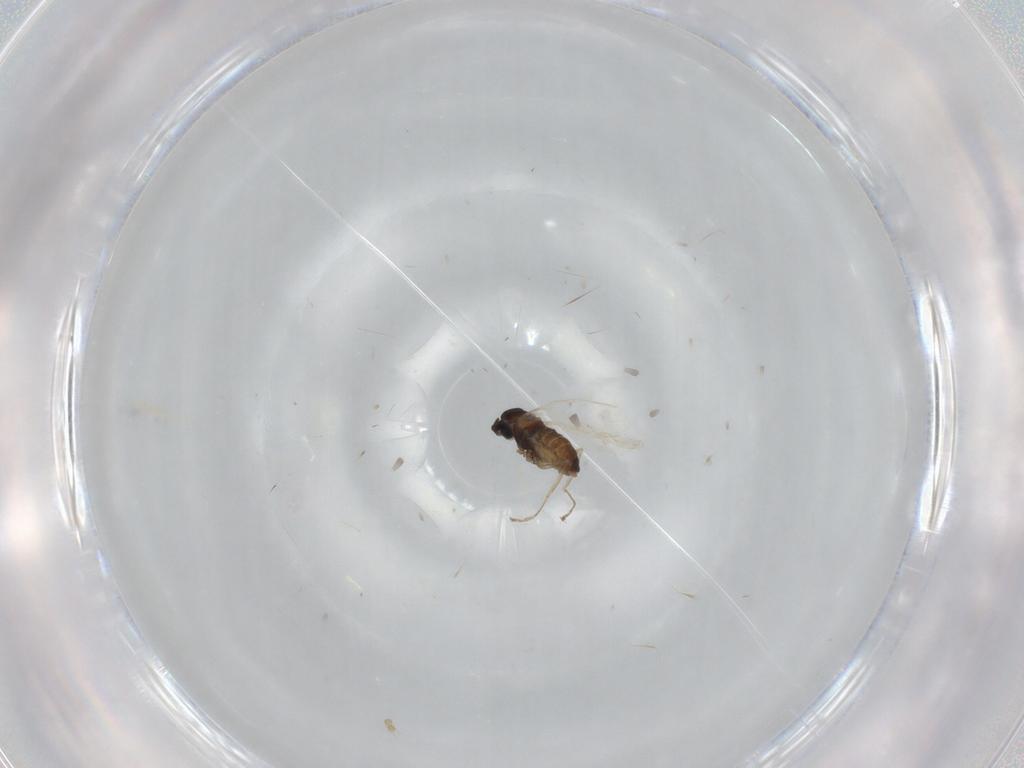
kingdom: Animalia
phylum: Arthropoda
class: Insecta
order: Diptera
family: Cecidomyiidae
